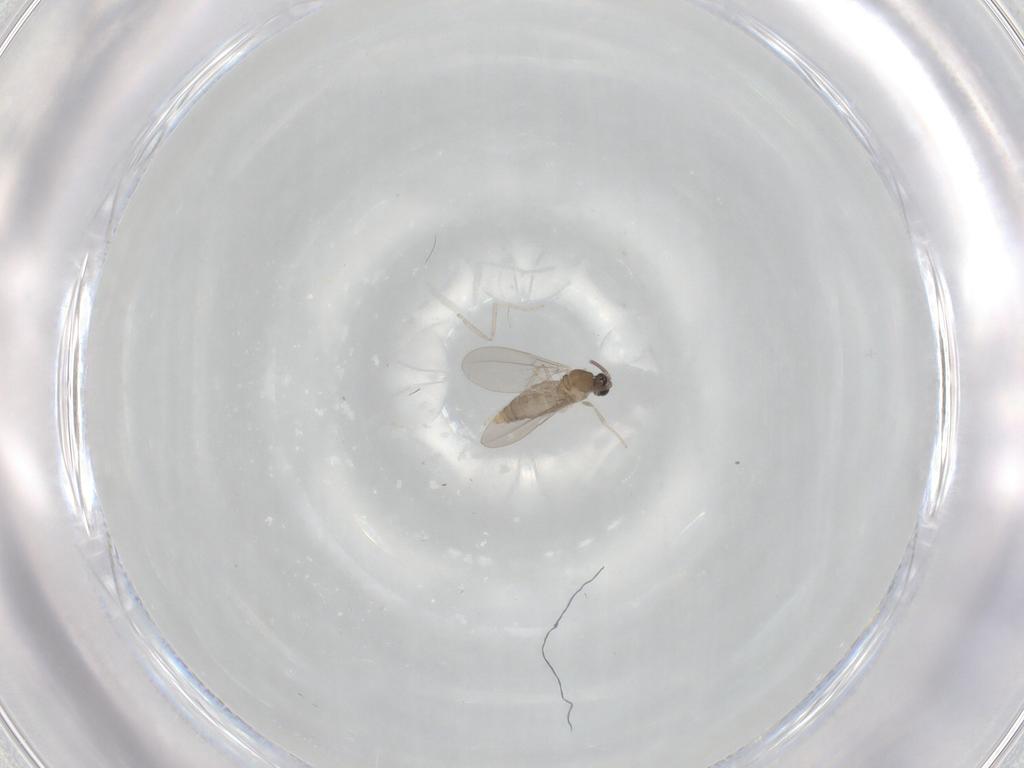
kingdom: Animalia
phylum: Arthropoda
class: Insecta
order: Diptera
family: Cecidomyiidae
